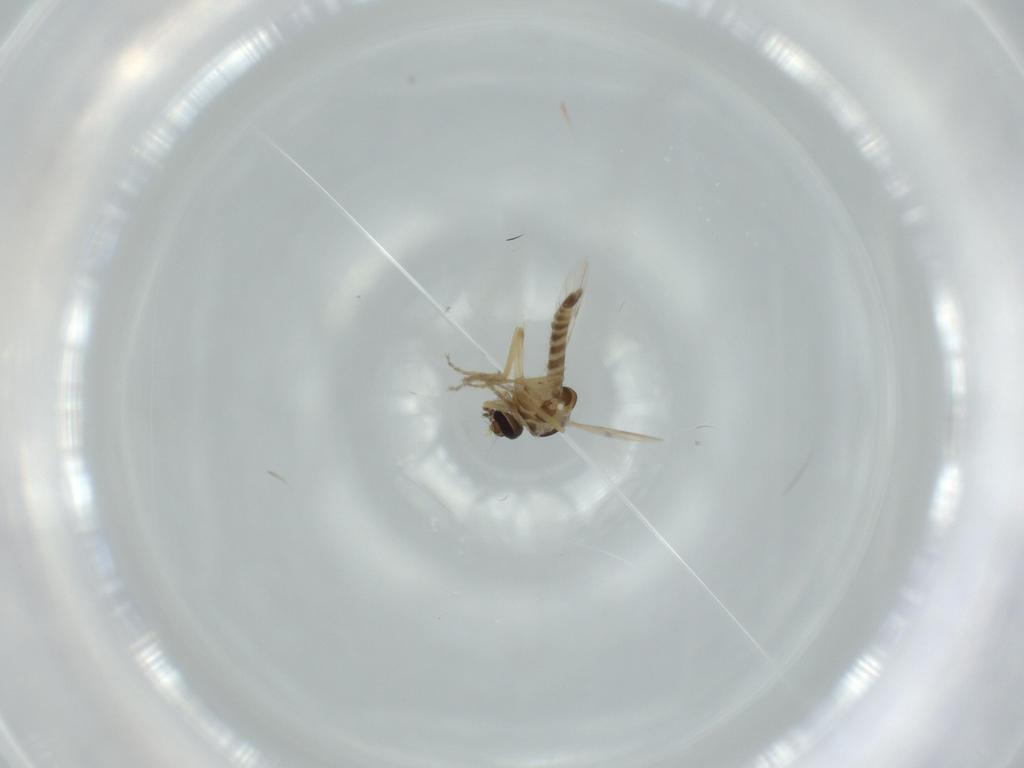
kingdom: Animalia
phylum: Arthropoda
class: Insecta
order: Diptera
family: Ceratopogonidae
